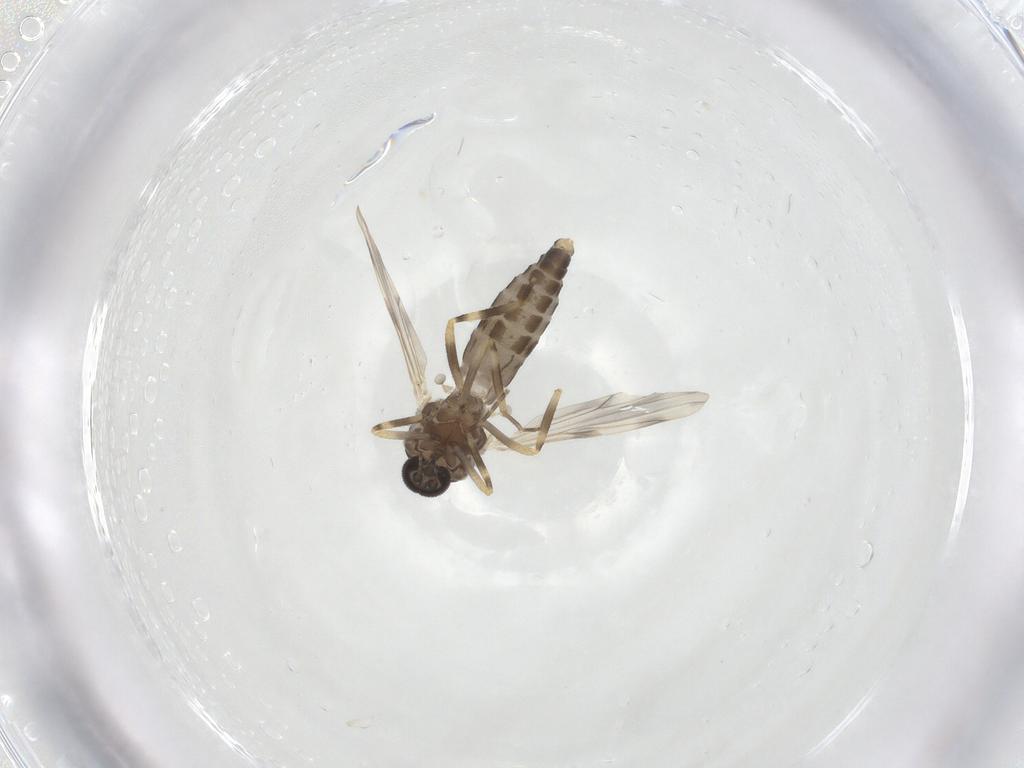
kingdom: Animalia
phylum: Arthropoda
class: Insecta
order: Diptera
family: Ceratopogonidae
